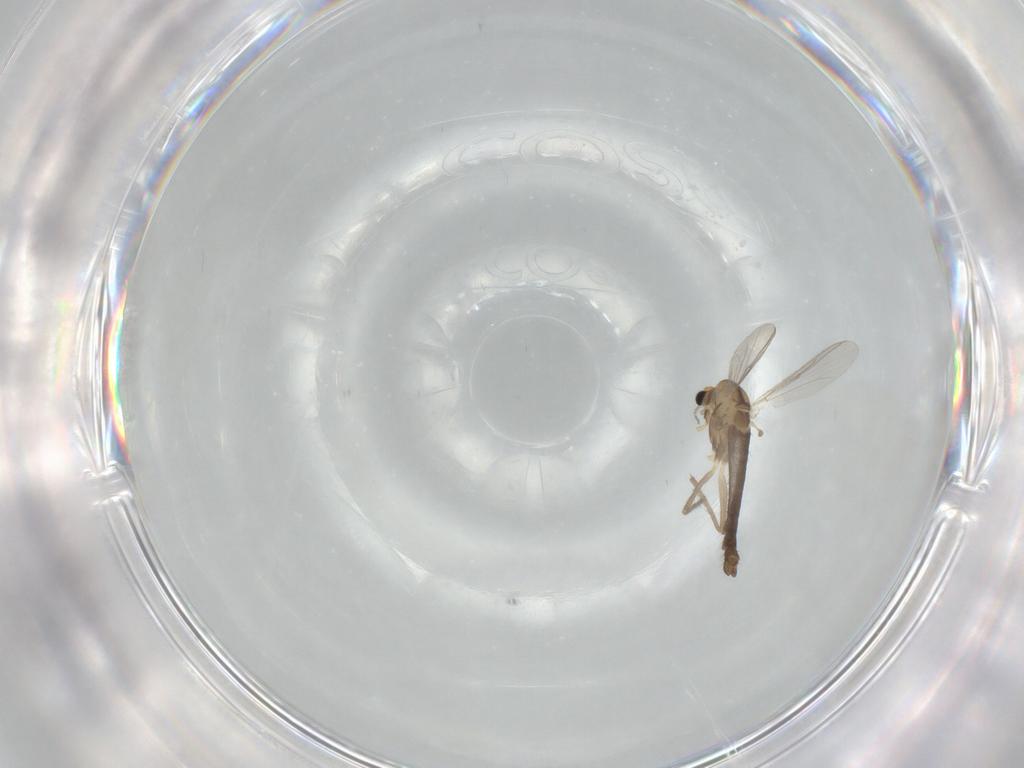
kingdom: Animalia
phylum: Arthropoda
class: Insecta
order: Diptera
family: Chironomidae
